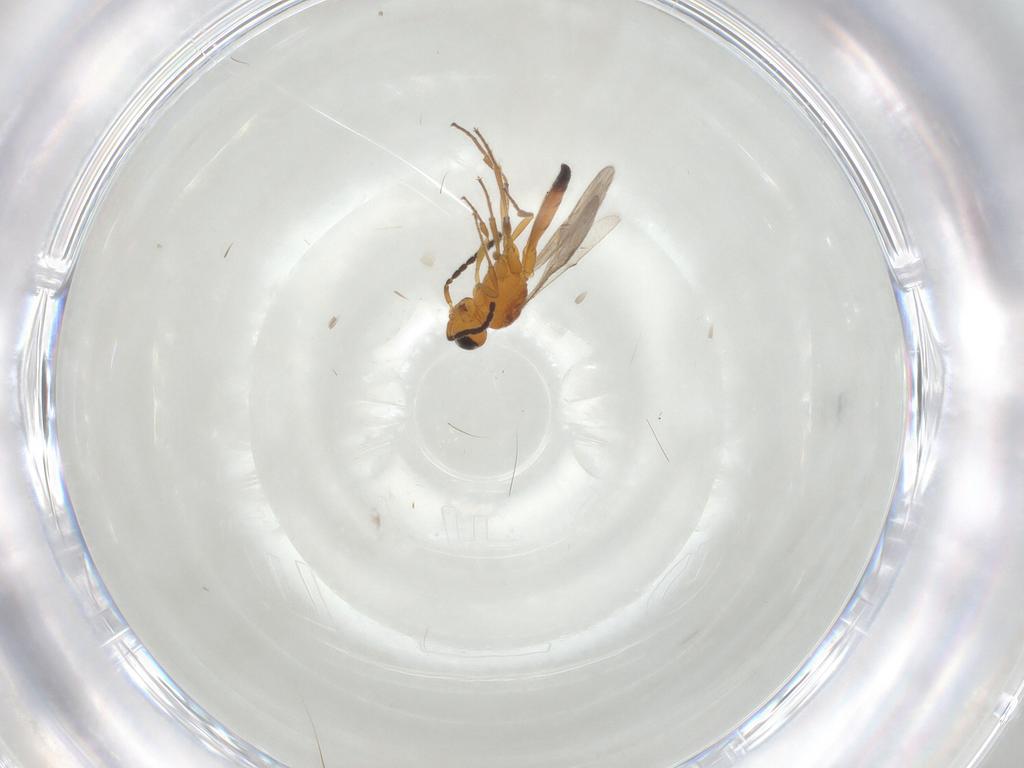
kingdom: Animalia
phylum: Arthropoda
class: Insecta
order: Hymenoptera
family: Scelionidae
